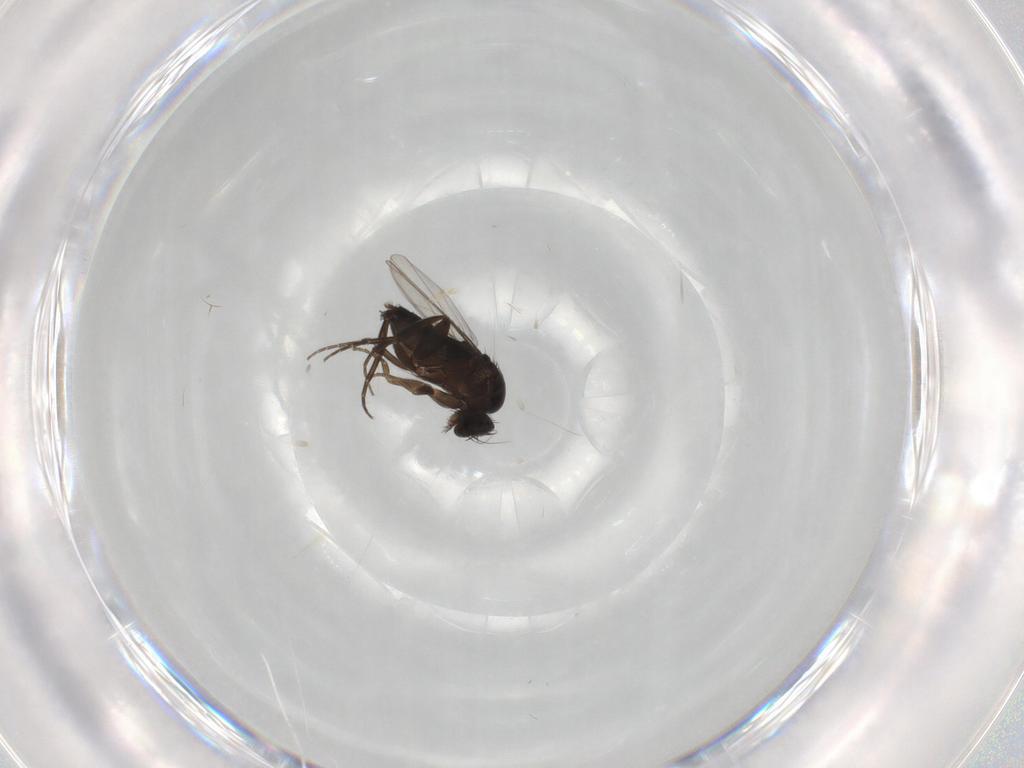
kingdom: Animalia
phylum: Arthropoda
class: Insecta
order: Diptera
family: Phoridae
